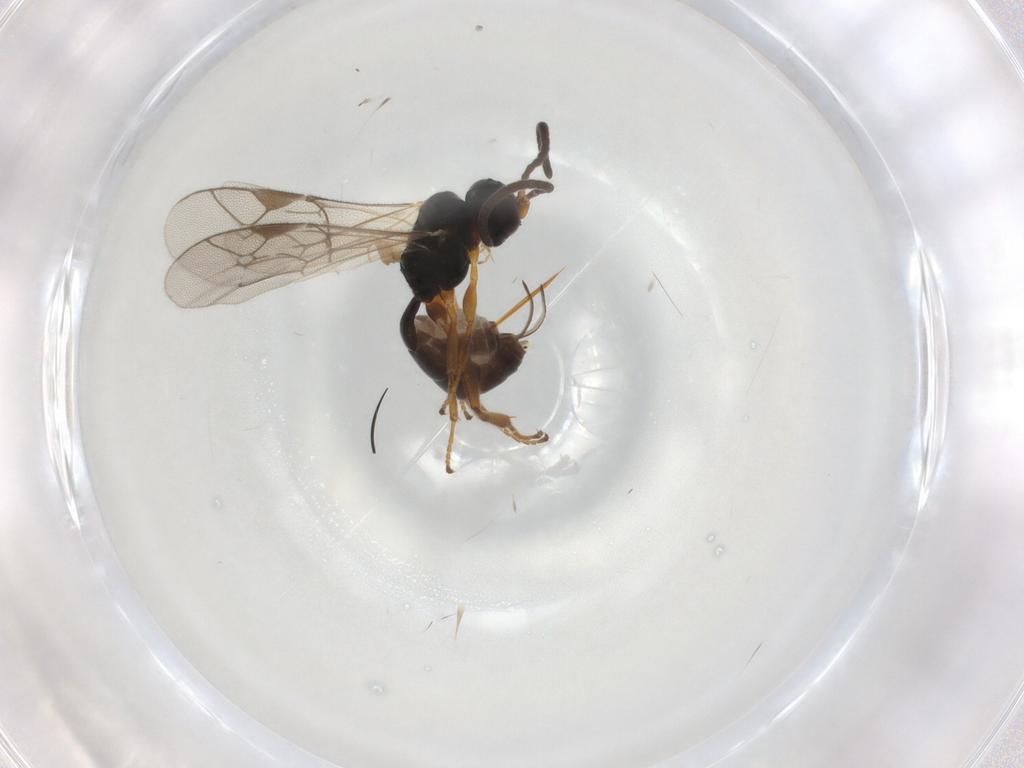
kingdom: Animalia
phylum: Arthropoda
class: Insecta
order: Hymenoptera
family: Ichneumonidae
